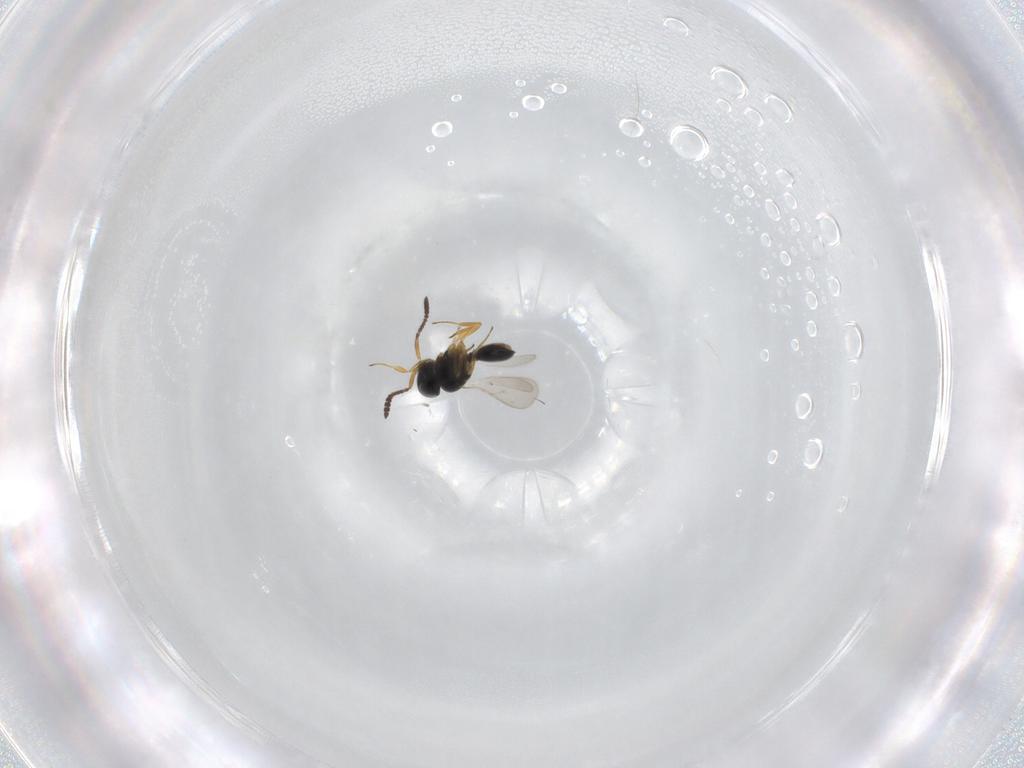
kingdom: Animalia
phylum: Arthropoda
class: Insecta
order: Hymenoptera
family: Scelionidae
